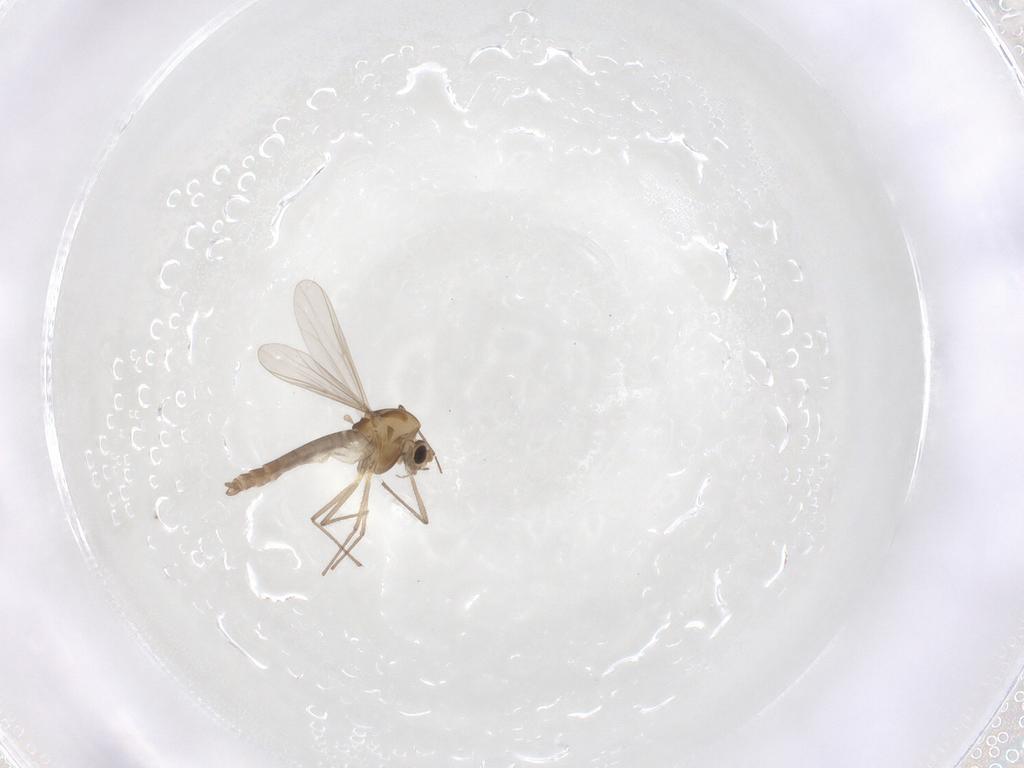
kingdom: Animalia
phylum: Arthropoda
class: Insecta
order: Diptera
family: Chironomidae
